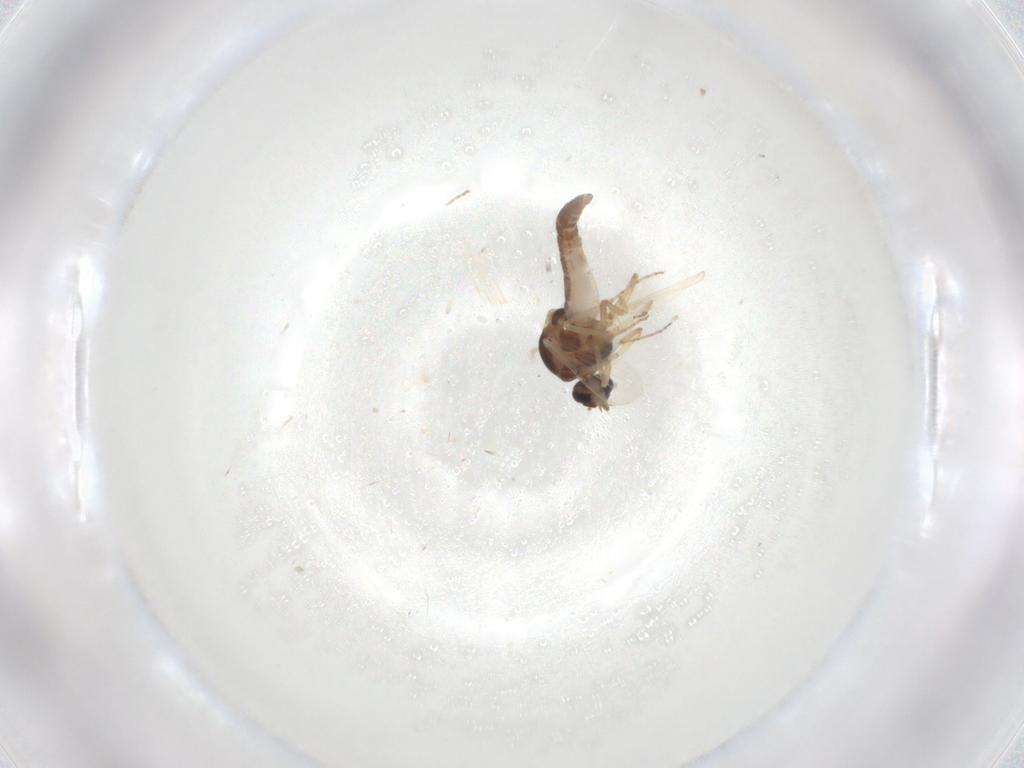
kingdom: Animalia
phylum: Arthropoda
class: Insecta
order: Diptera
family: Ceratopogonidae
